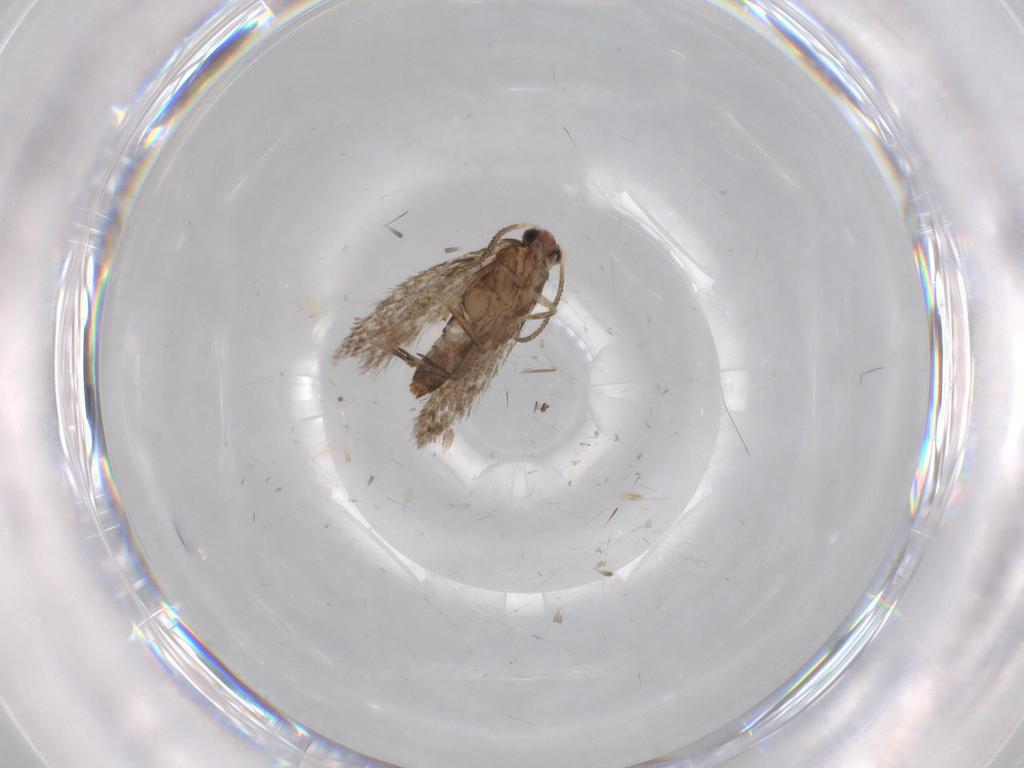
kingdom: Animalia
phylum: Arthropoda
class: Insecta
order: Lepidoptera
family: Nepticulidae
